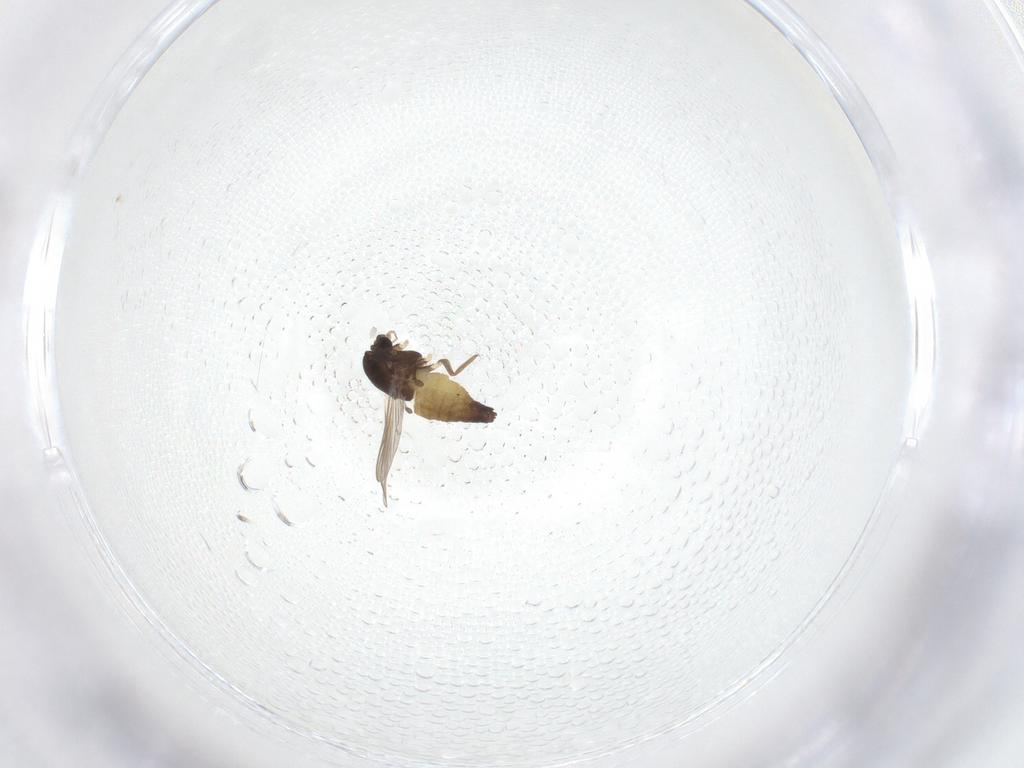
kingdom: Animalia
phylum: Arthropoda
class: Insecta
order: Diptera
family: Chironomidae
